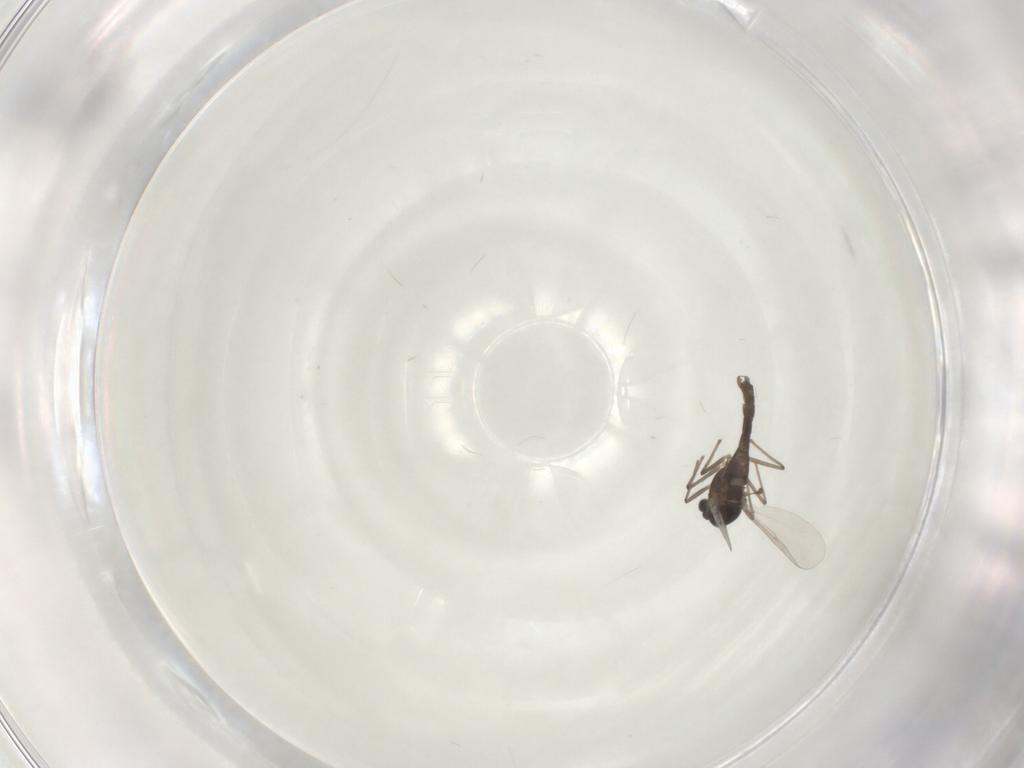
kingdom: Animalia
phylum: Arthropoda
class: Insecta
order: Diptera
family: Chironomidae
